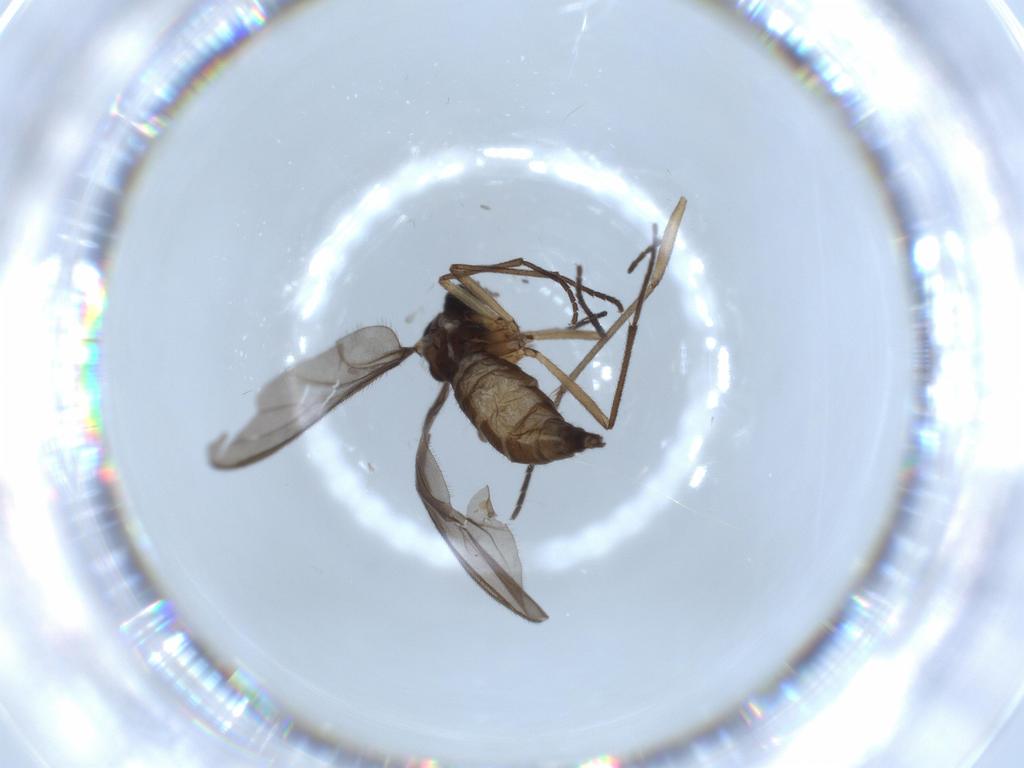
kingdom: Animalia
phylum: Arthropoda
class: Insecta
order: Diptera
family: Sciaridae
